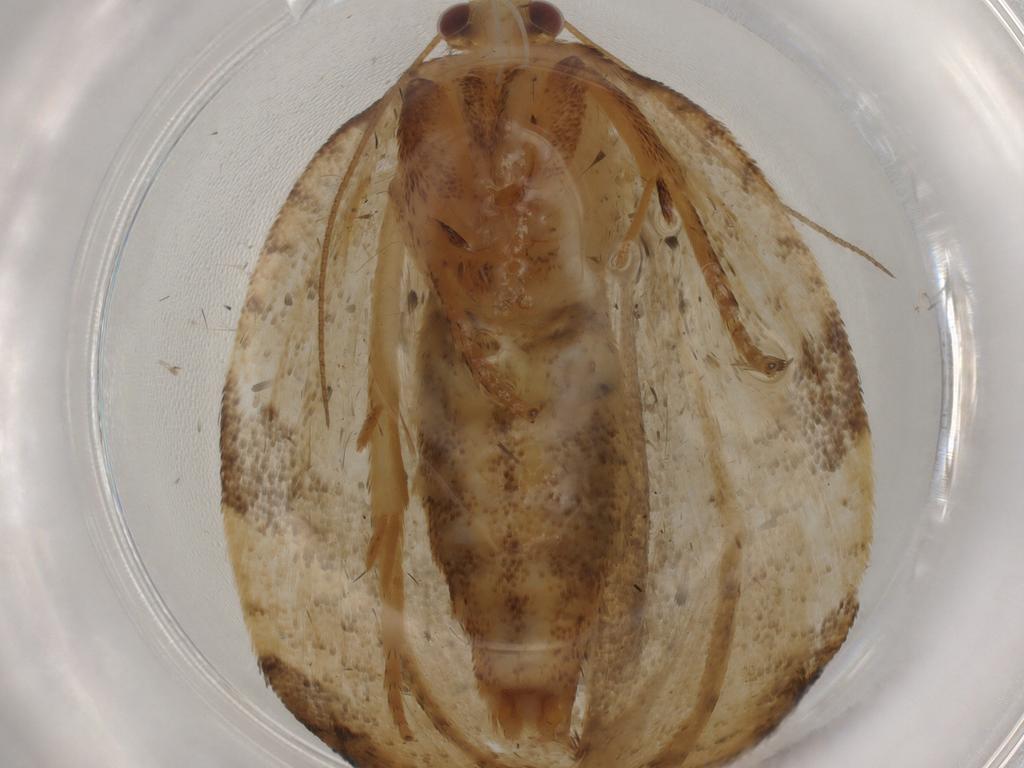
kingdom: Animalia
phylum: Arthropoda
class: Insecta
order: Lepidoptera
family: Tortricidae
